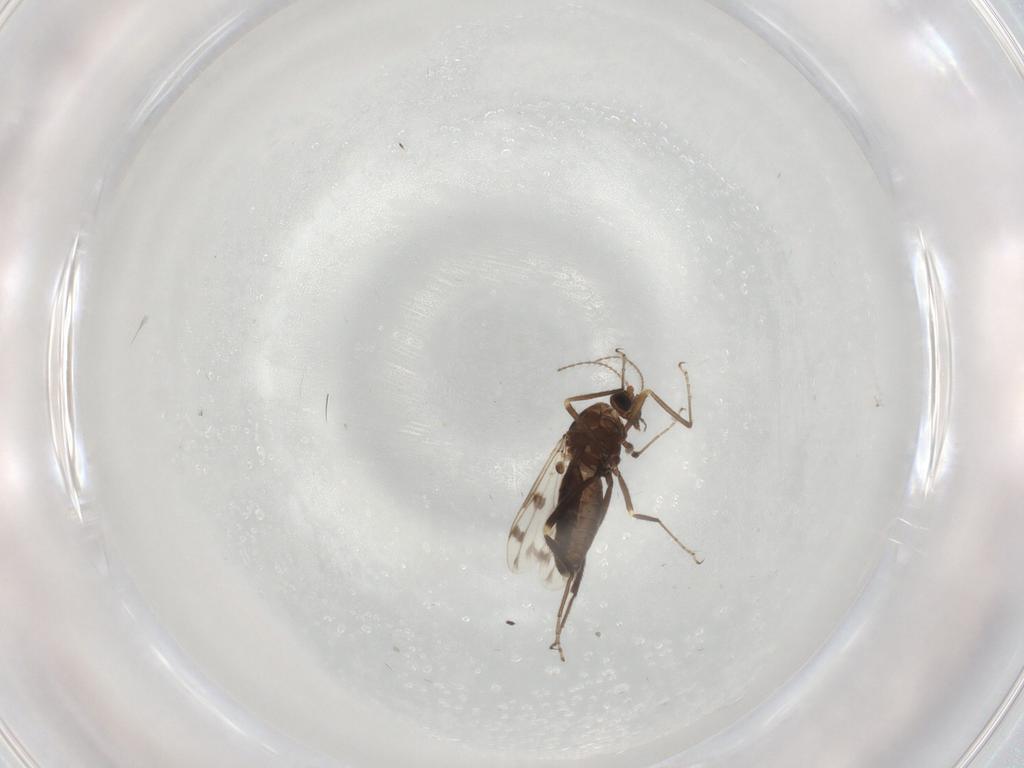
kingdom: Animalia
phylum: Arthropoda
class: Insecta
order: Diptera
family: Ceratopogonidae
